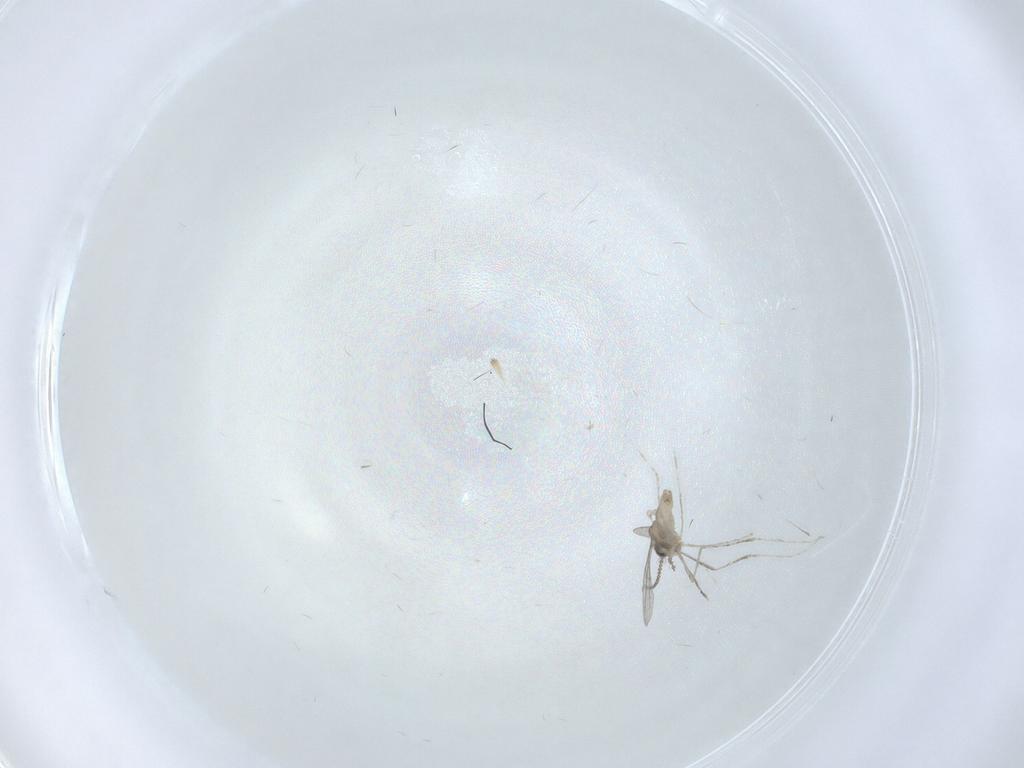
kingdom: Animalia
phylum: Arthropoda
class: Insecta
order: Diptera
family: Cecidomyiidae
